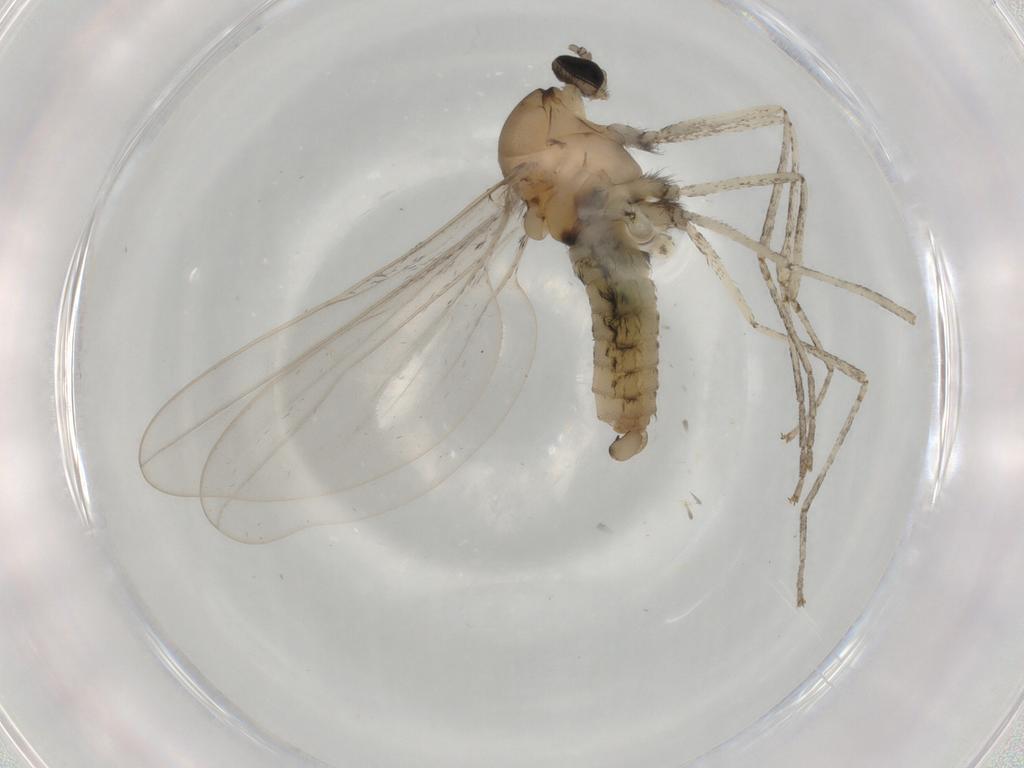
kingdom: Animalia
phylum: Arthropoda
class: Insecta
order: Diptera
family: Cecidomyiidae
